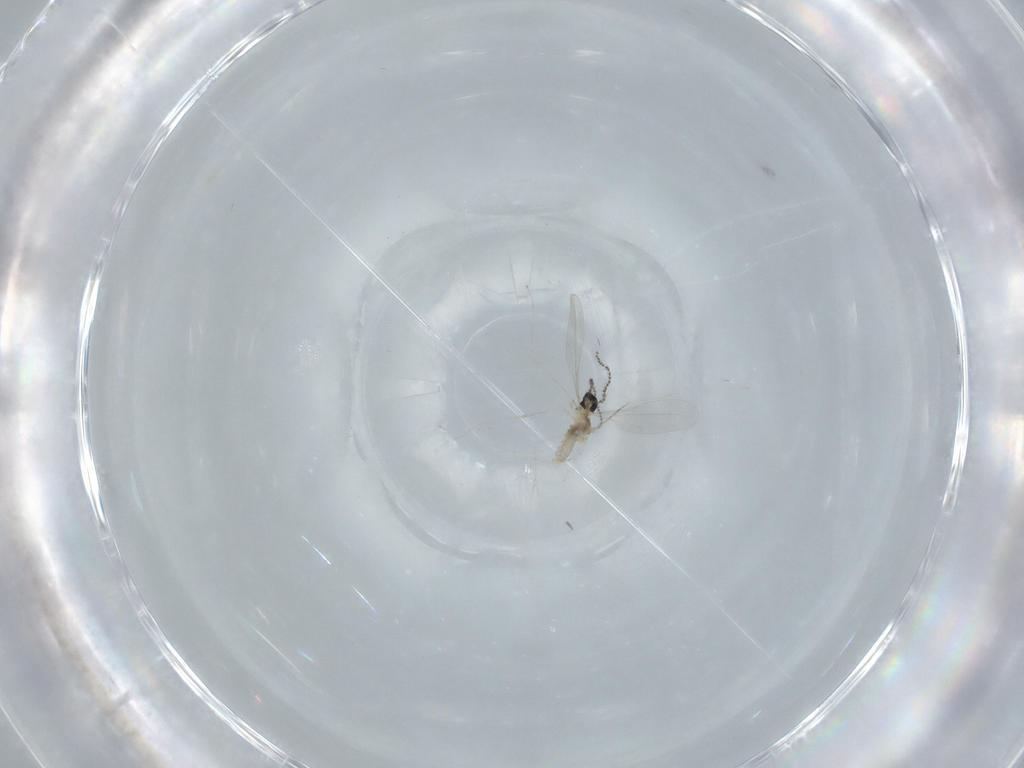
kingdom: Animalia
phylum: Arthropoda
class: Insecta
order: Diptera
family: Cecidomyiidae
